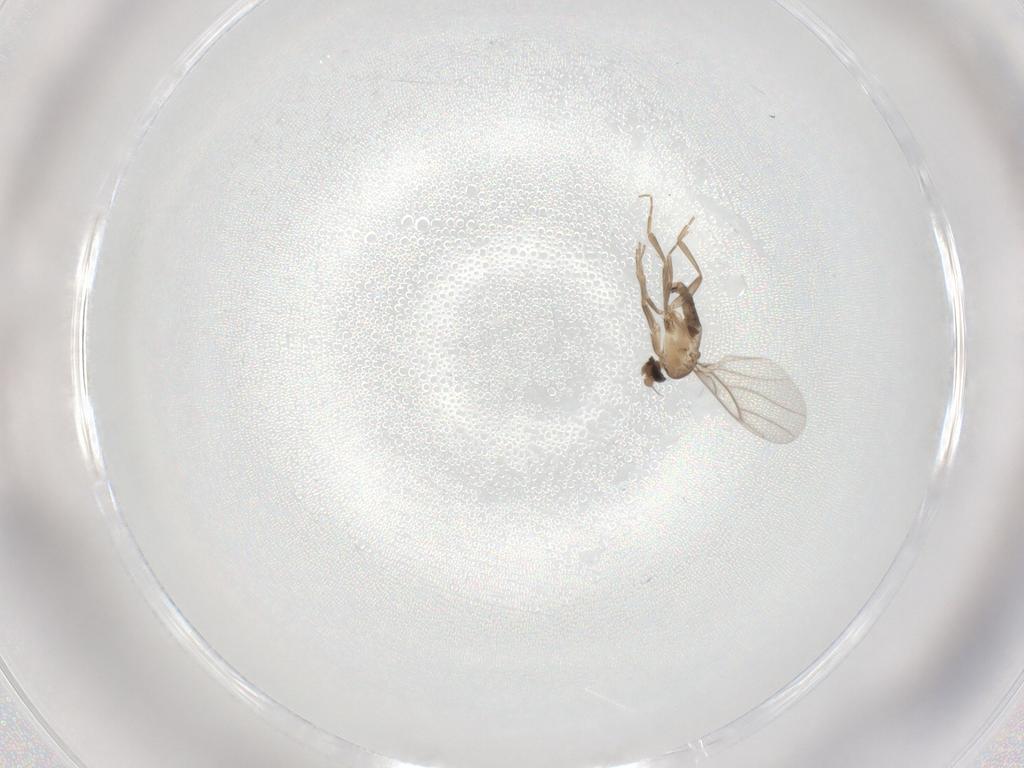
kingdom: Animalia
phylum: Arthropoda
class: Insecta
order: Diptera
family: Psychodidae
